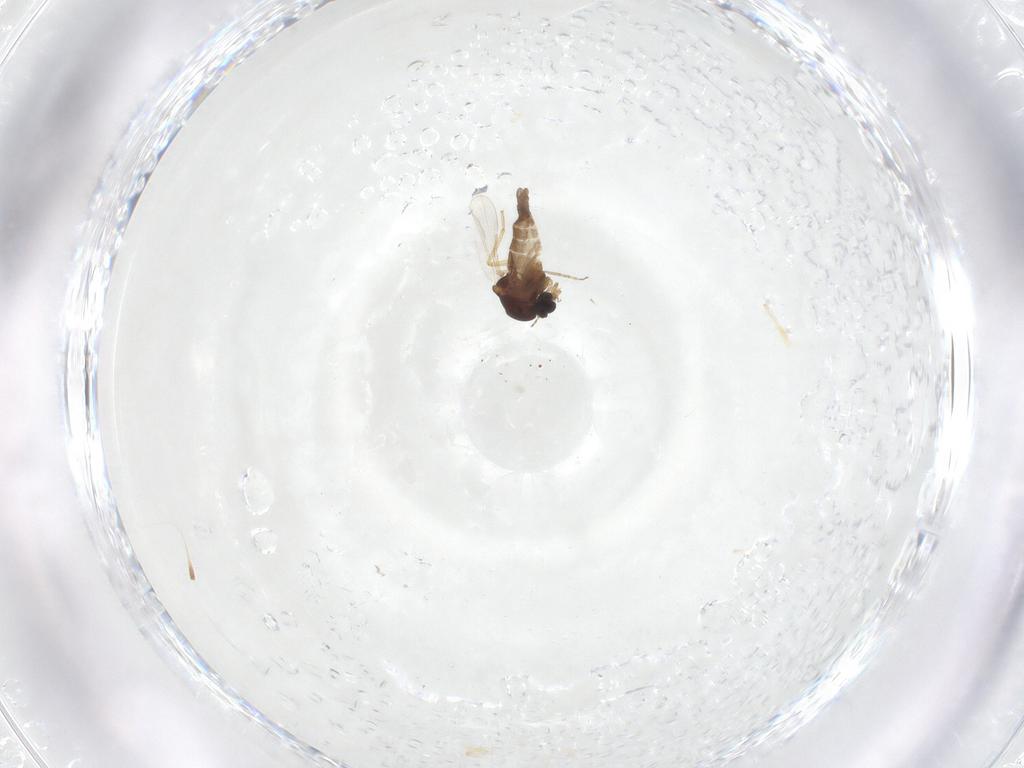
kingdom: Animalia
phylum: Arthropoda
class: Insecta
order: Diptera
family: Ceratopogonidae
